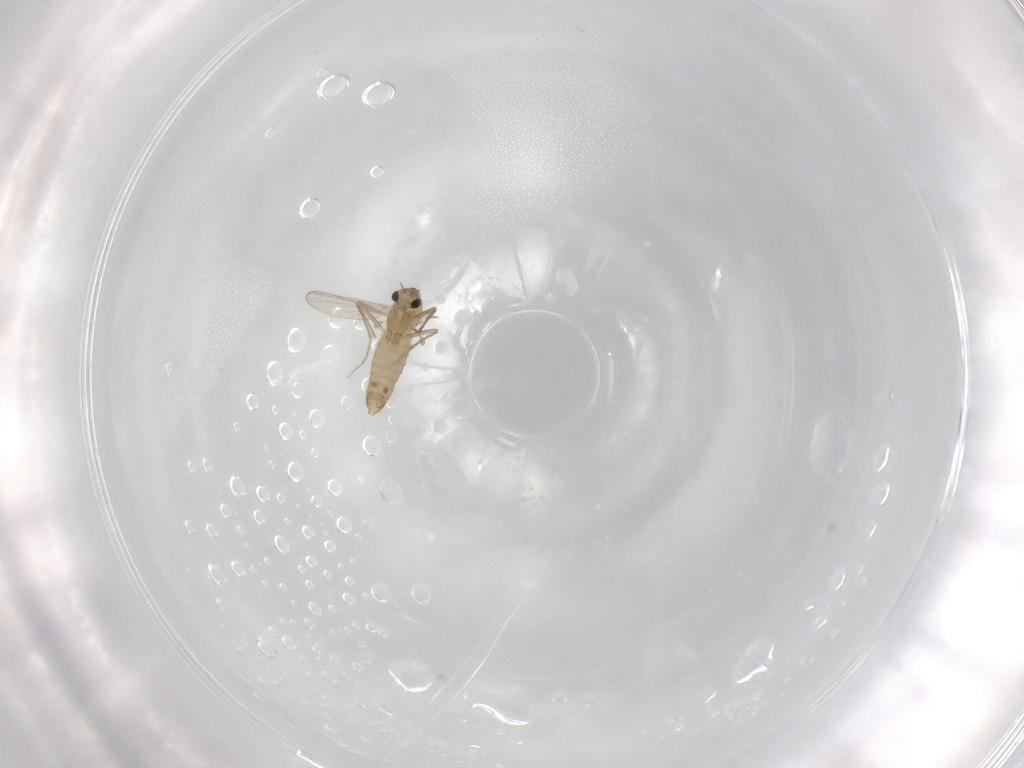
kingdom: Animalia
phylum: Arthropoda
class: Insecta
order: Diptera
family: Chironomidae
